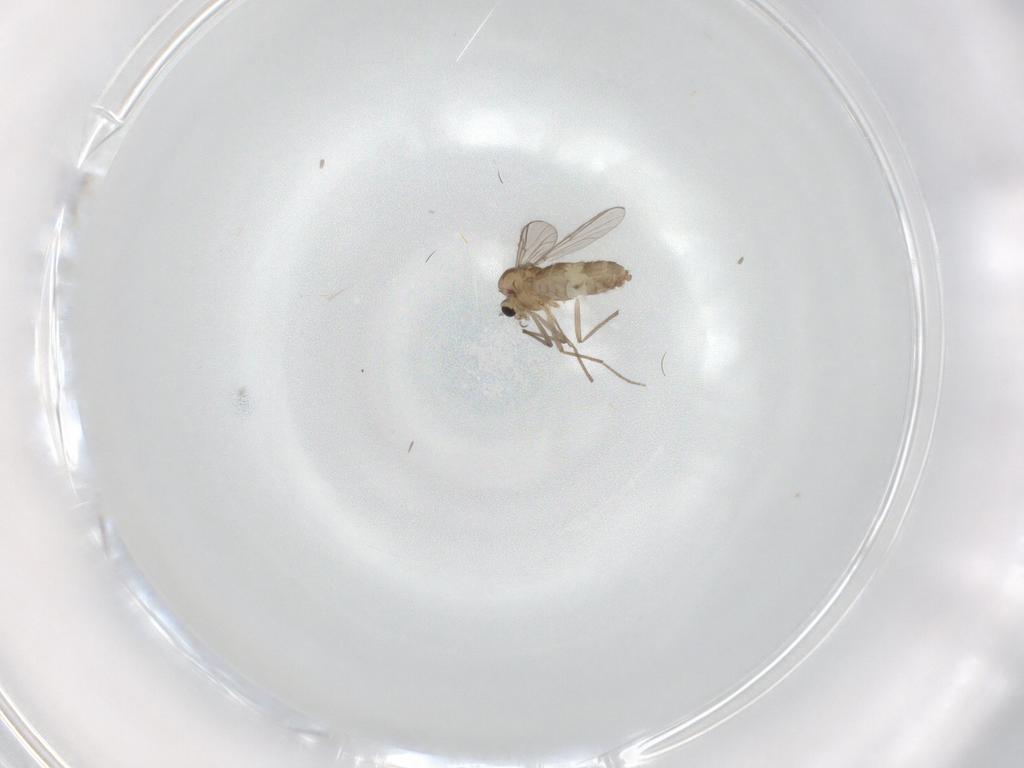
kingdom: Animalia
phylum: Arthropoda
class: Insecta
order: Diptera
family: Chironomidae
